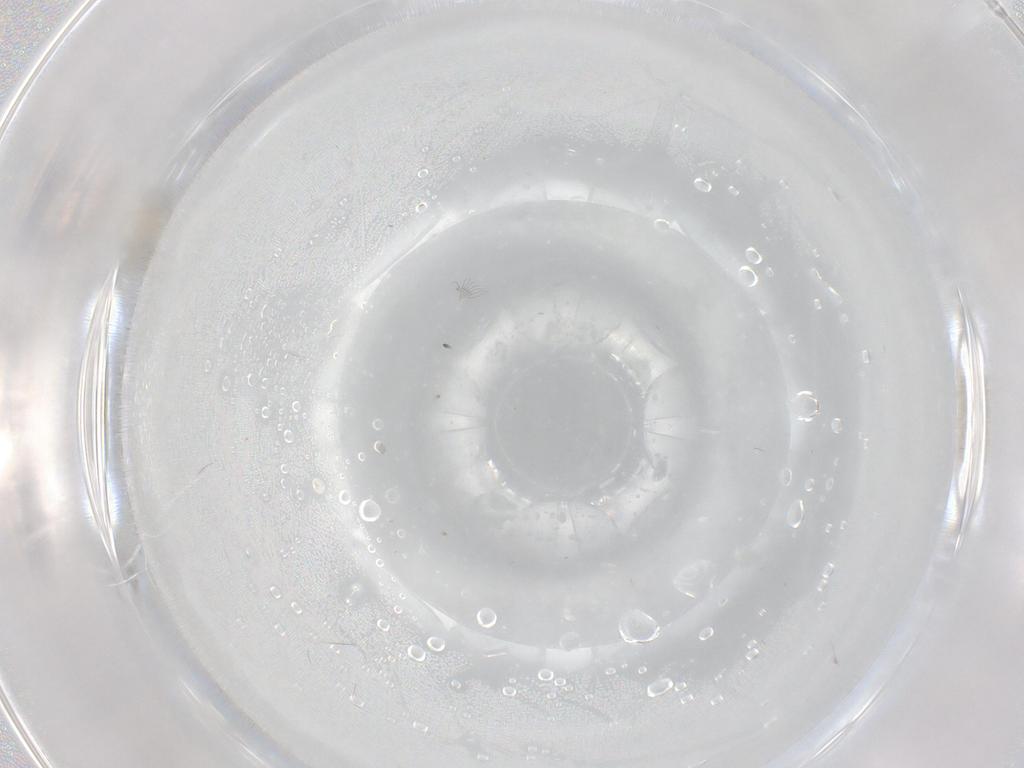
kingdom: Animalia
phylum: Arthropoda
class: Insecta
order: Diptera
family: Cecidomyiidae
